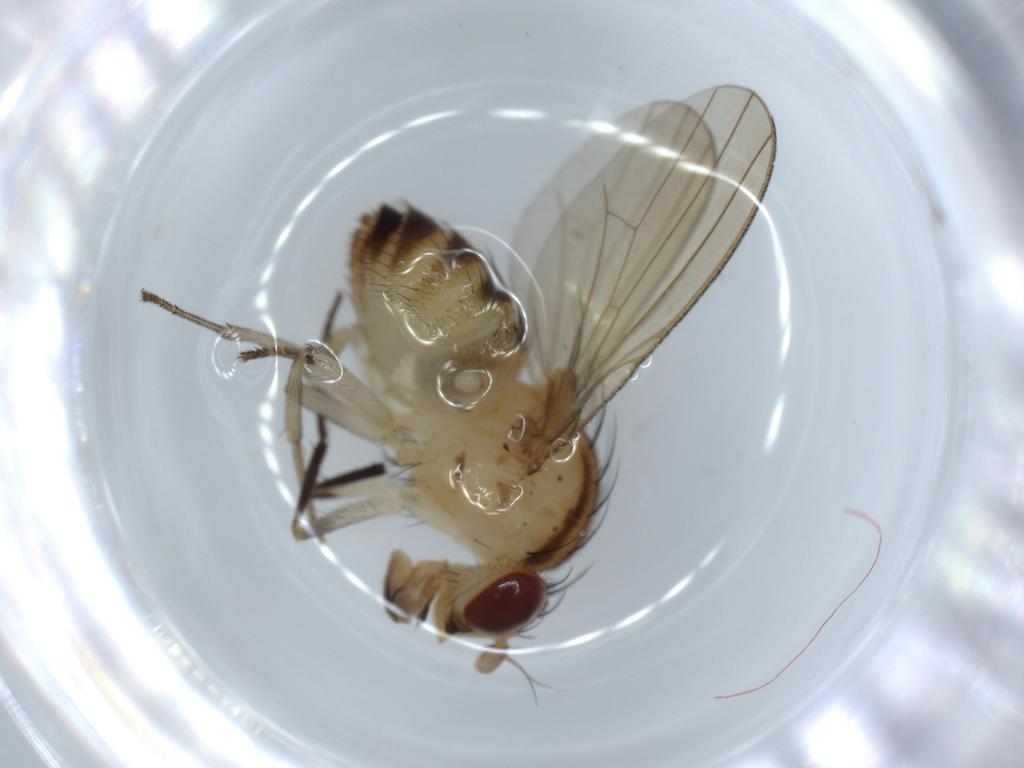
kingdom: Animalia
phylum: Arthropoda
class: Insecta
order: Diptera
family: Lauxaniidae
